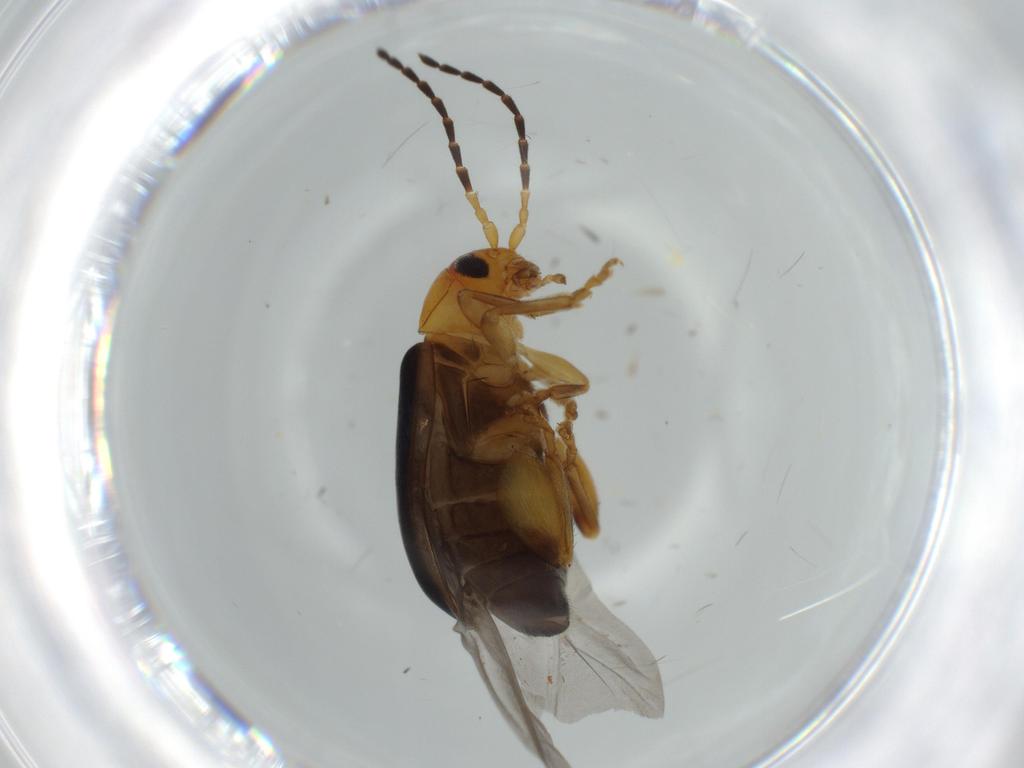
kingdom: Animalia
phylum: Arthropoda
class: Insecta
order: Coleoptera
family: Chrysomelidae
